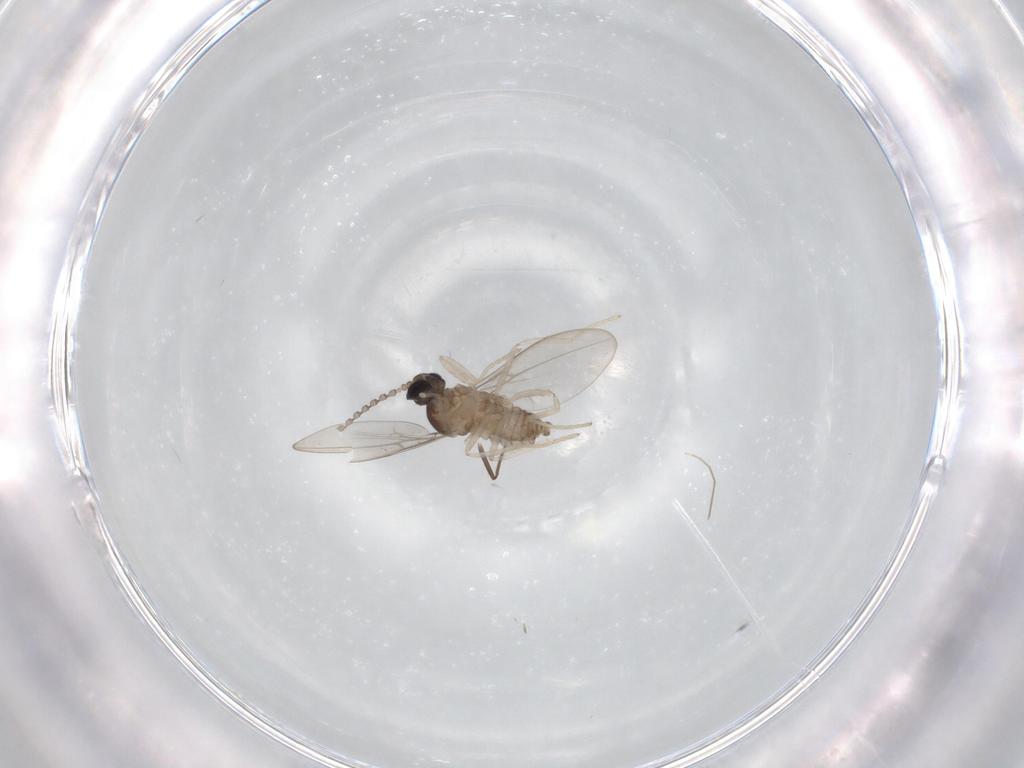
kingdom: Animalia
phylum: Arthropoda
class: Insecta
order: Diptera
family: Cecidomyiidae
